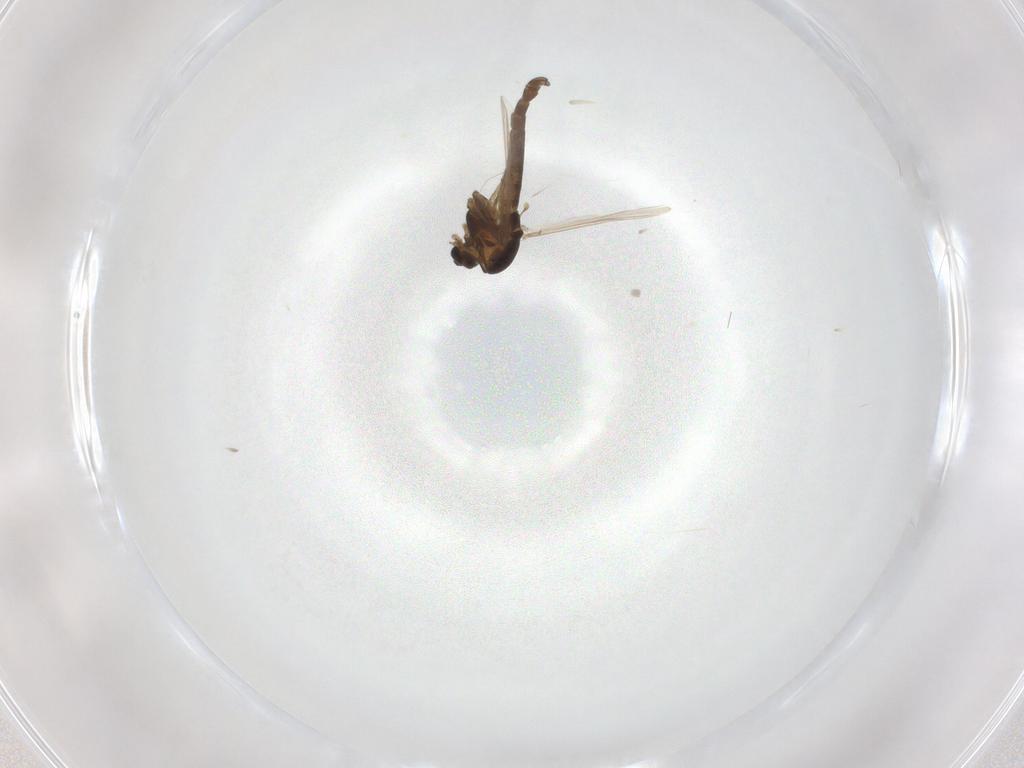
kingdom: Animalia
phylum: Arthropoda
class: Insecta
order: Diptera
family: Chironomidae
